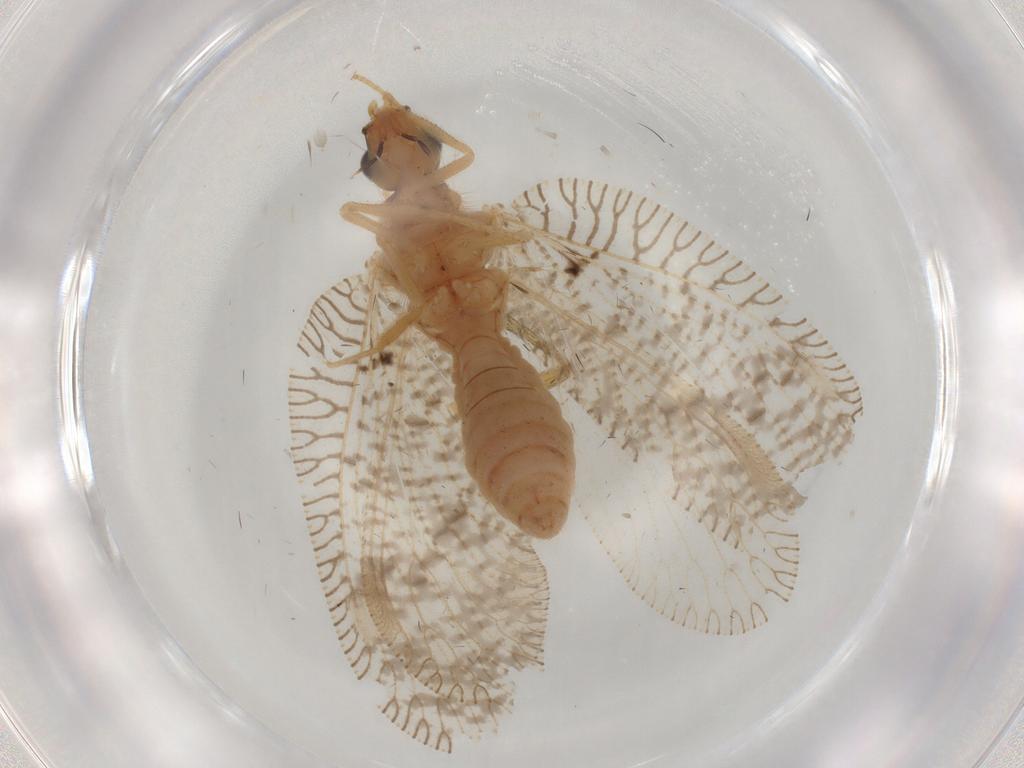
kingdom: Animalia
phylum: Arthropoda
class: Insecta
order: Neuroptera
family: Hemerobiidae
